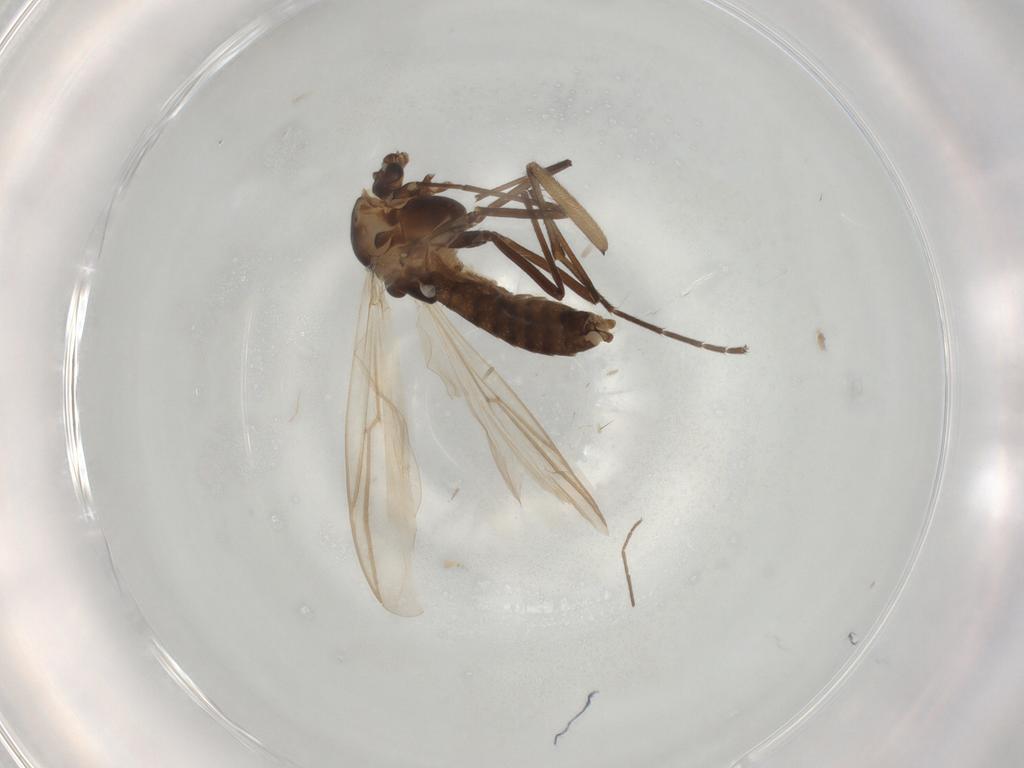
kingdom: Animalia
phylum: Arthropoda
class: Insecta
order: Diptera
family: Chironomidae
